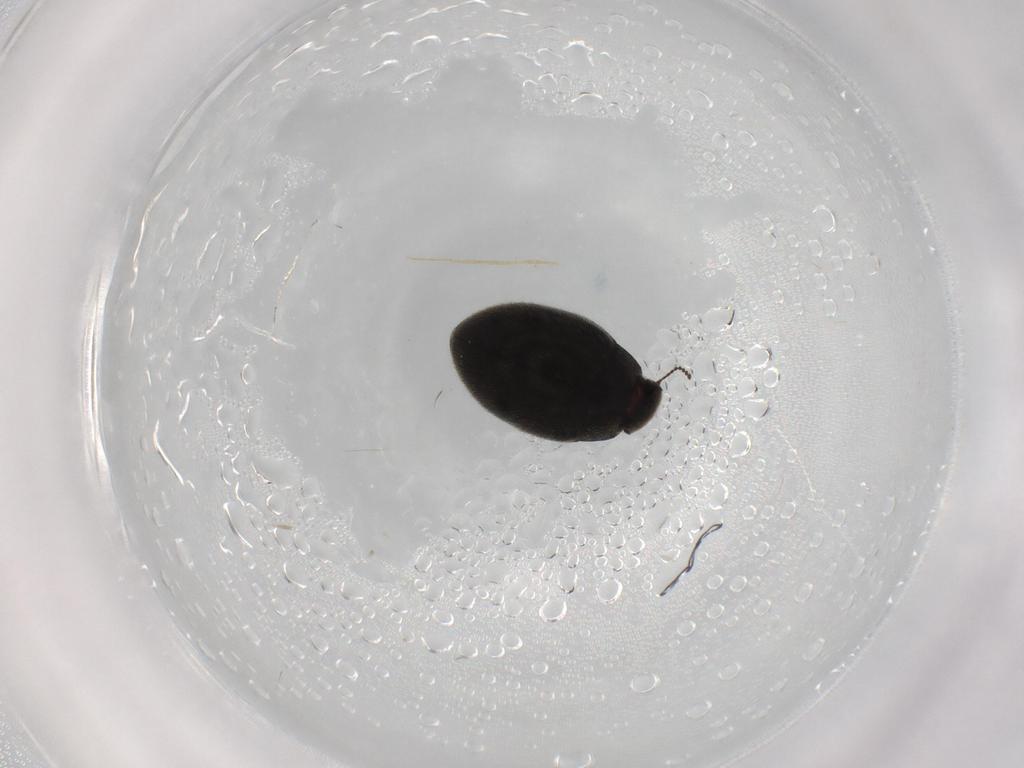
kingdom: Animalia
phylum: Arthropoda
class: Insecta
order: Coleoptera
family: Limnichidae
